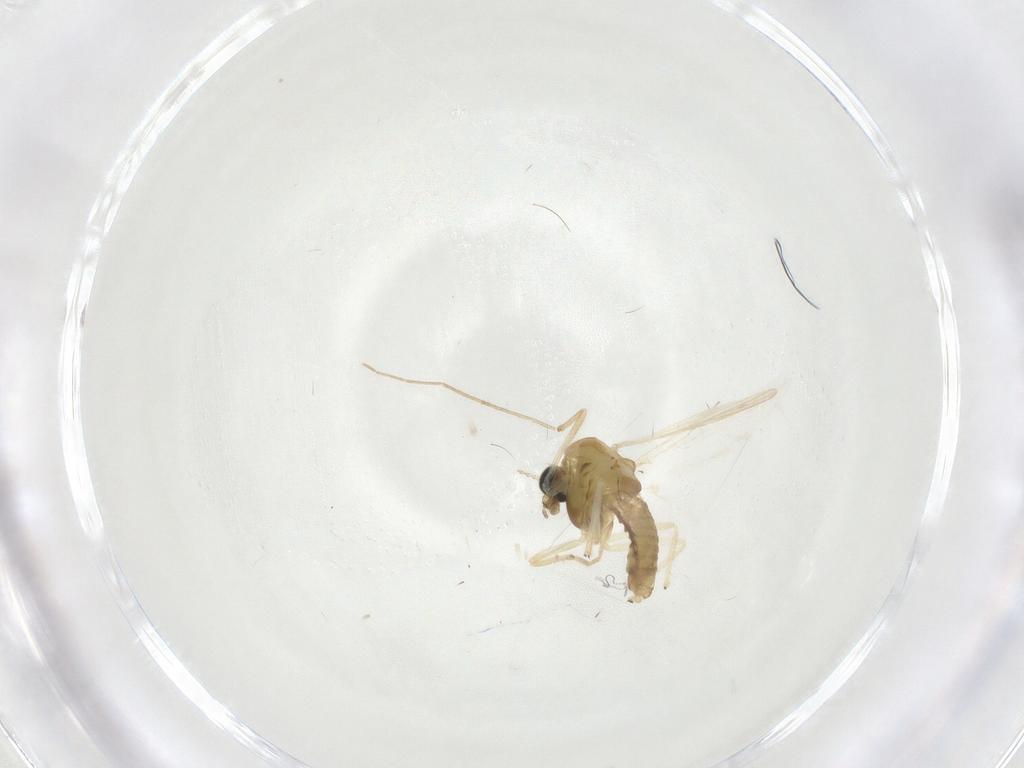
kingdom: Animalia
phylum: Arthropoda
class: Insecta
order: Diptera
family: Chironomidae
